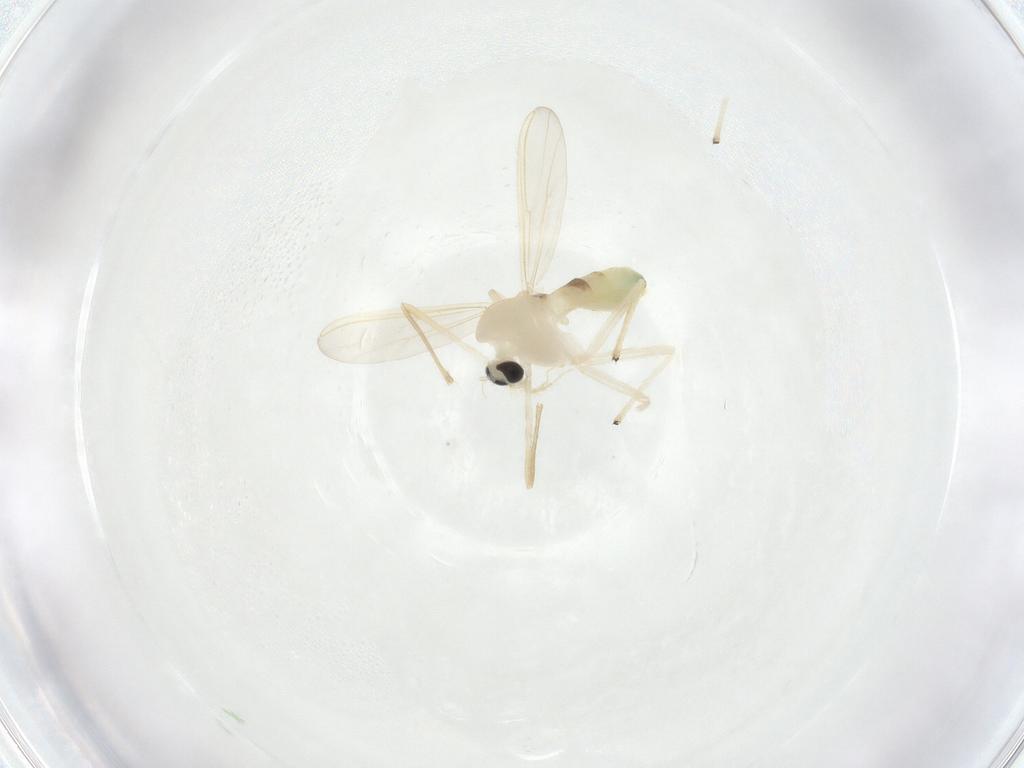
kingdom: Animalia
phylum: Arthropoda
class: Insecta
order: Diptera
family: Chironomidae
